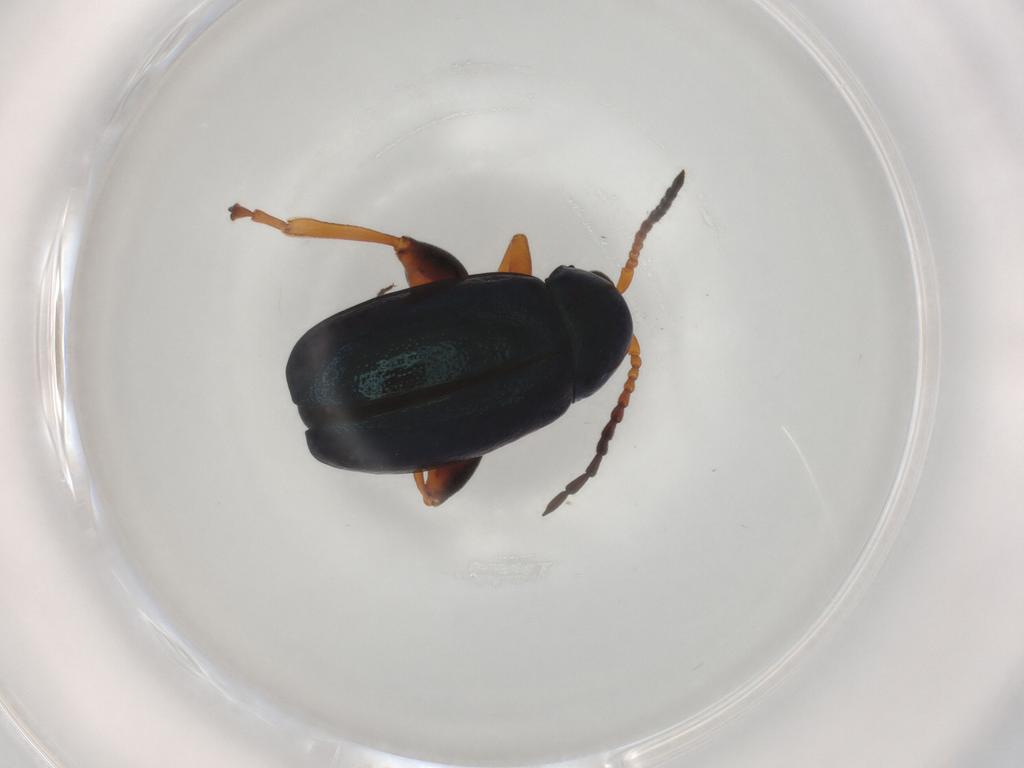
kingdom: Animalia
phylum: Arthropoda
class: Insecta
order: Coleoptera
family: Chrysomelidae
